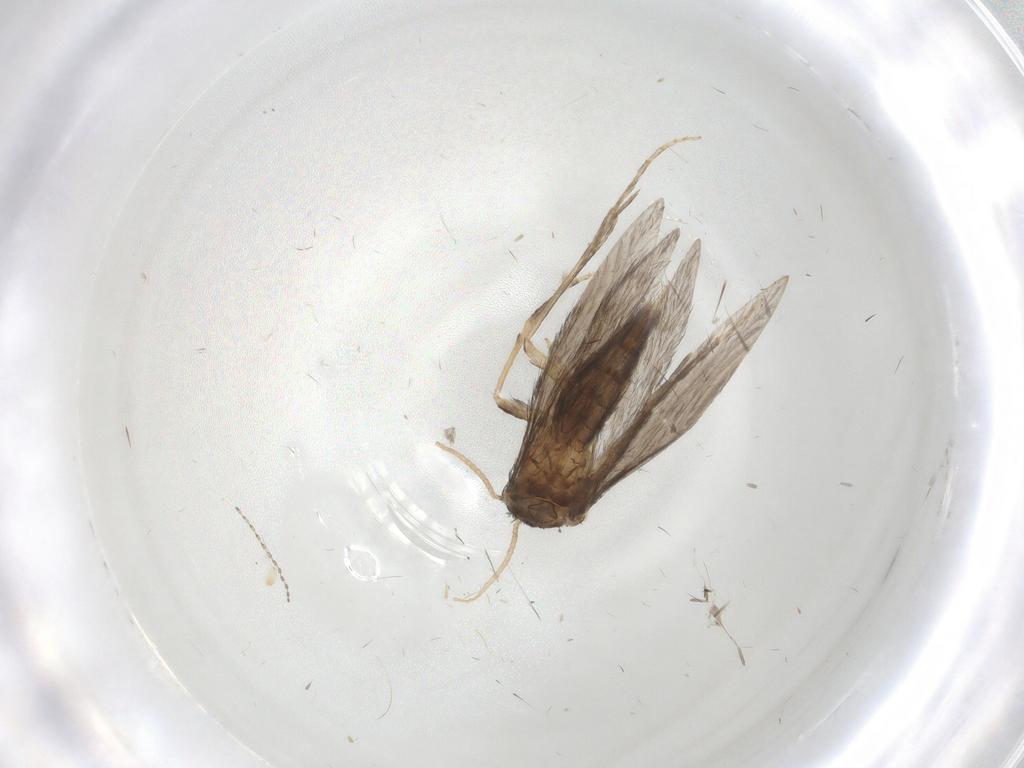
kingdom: Animalia
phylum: Arthropoda
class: Insecta
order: Trichoptera
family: Hydroptilidae
